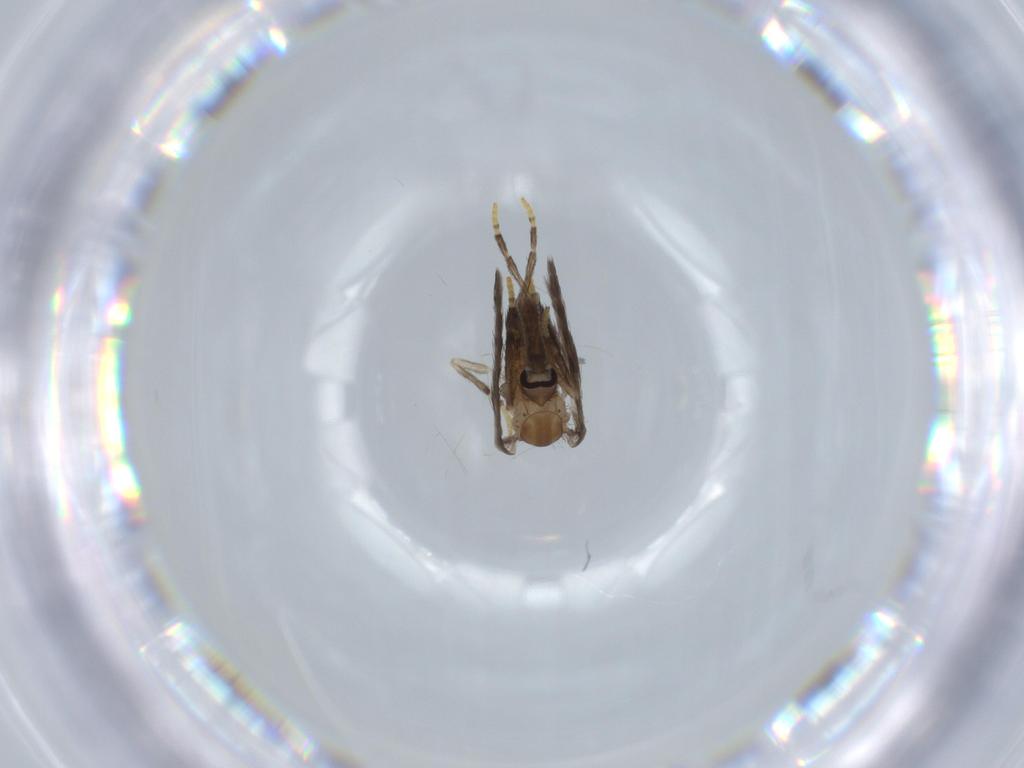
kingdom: Animalia
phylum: Arthropoda
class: Insecta
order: Diptera
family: Psychodidae
